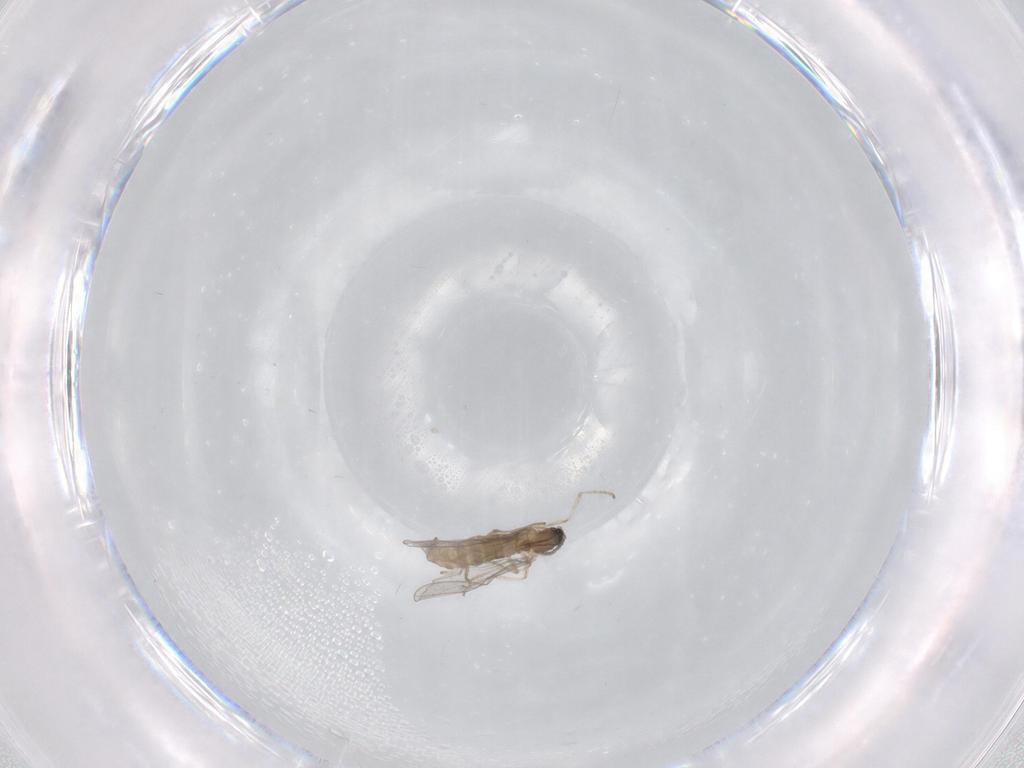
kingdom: Animalia
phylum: Arthropoda
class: Insecta
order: Diptera
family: Cecidomyiidae
